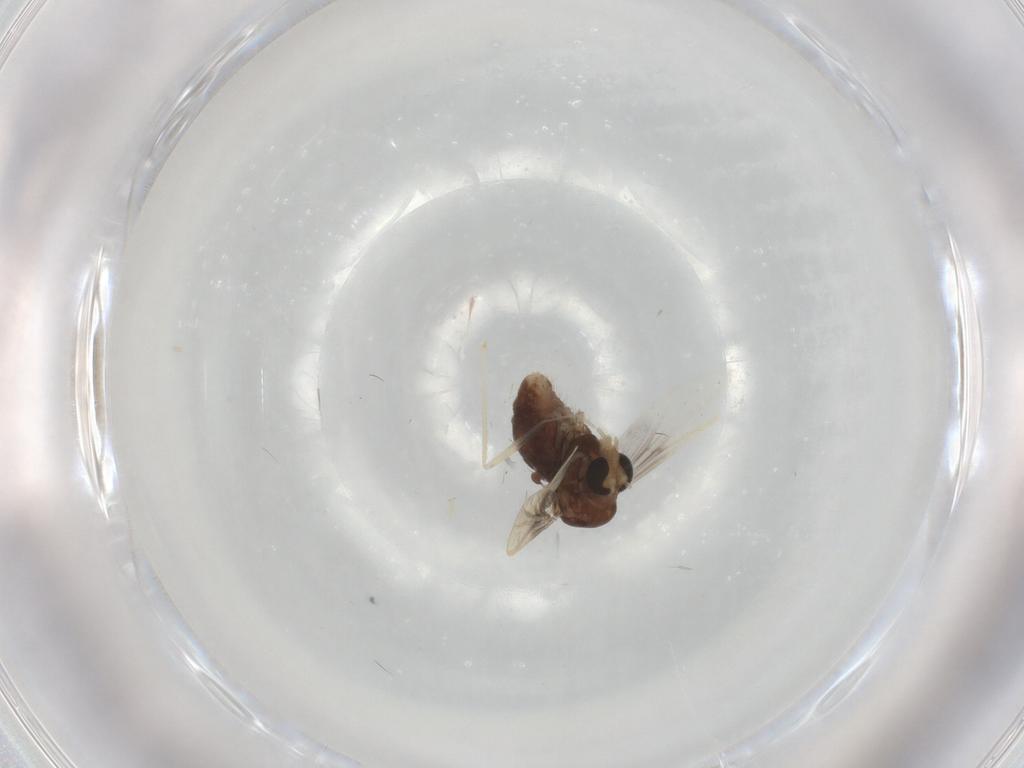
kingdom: Animalia
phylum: Arthropoda
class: Insecta
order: Diptera
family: Chironomidae
